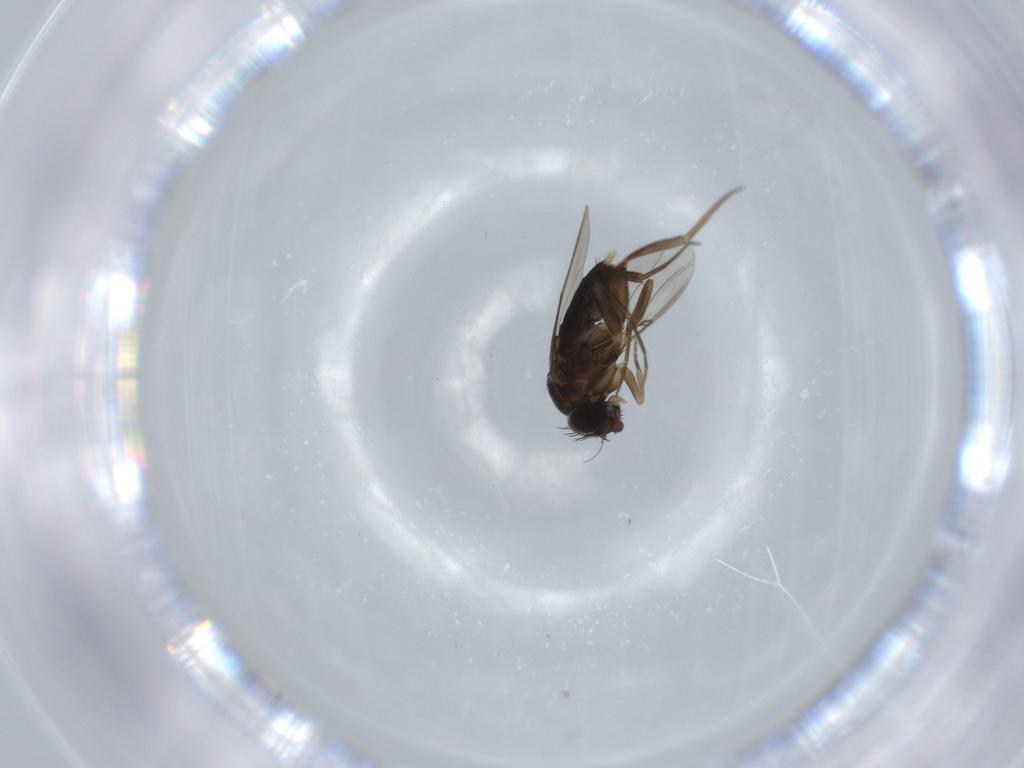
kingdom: Animalia
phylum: Arthropoda
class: Insecta
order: Diptera
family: Phoridae
